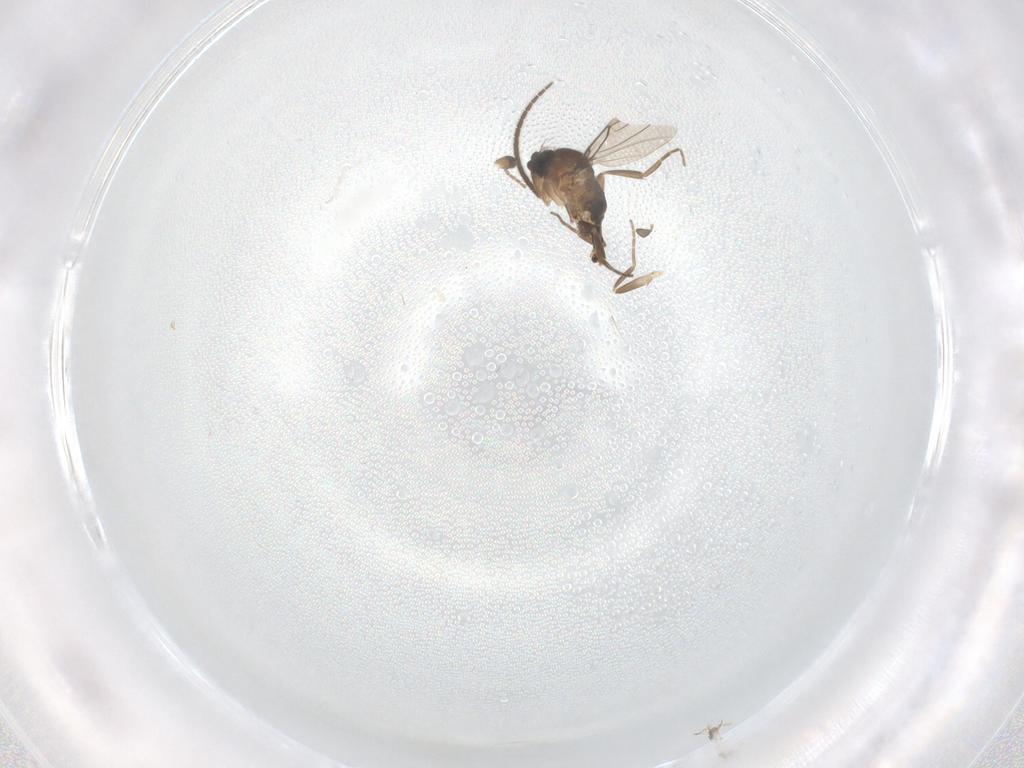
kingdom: Animalia
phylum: Arthropoda
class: Insecta
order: Diptera
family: Sciaridae
